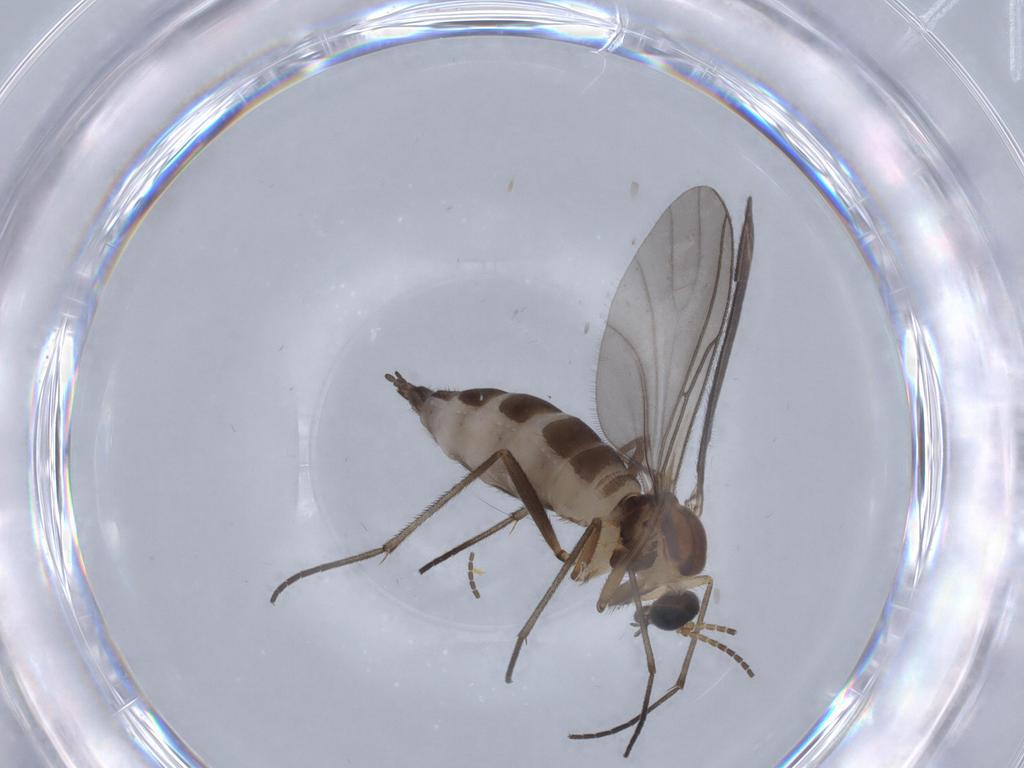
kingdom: Animalia
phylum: Arthropoda
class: Insecta
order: Diptera
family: Sciaridae
